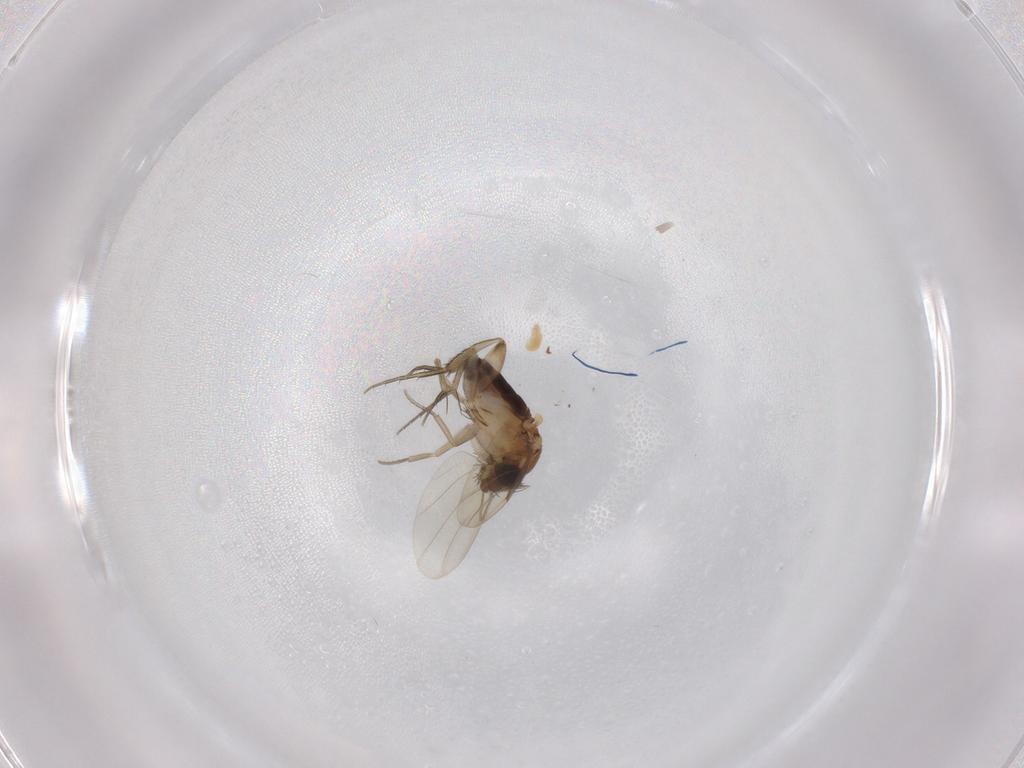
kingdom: Animalia
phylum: Arthropoda
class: Insecta
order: Diptera
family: Phoridae
